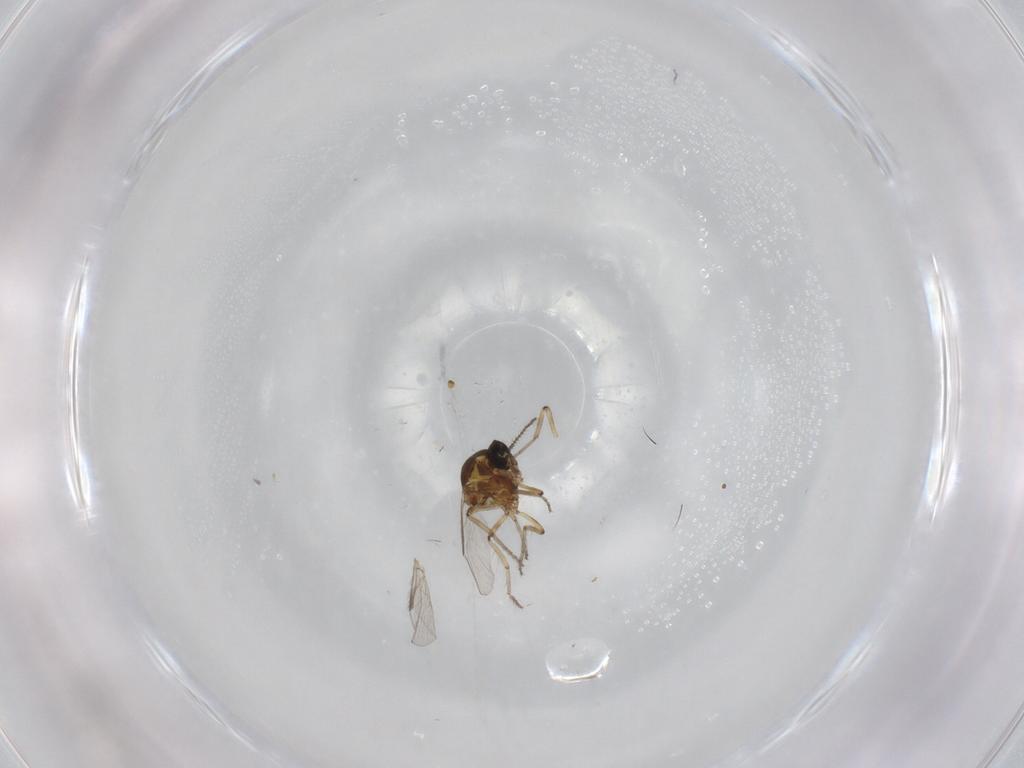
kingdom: Animalia
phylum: Arthropoda
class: Insecta
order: Diptera
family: Ceratopogonidae
